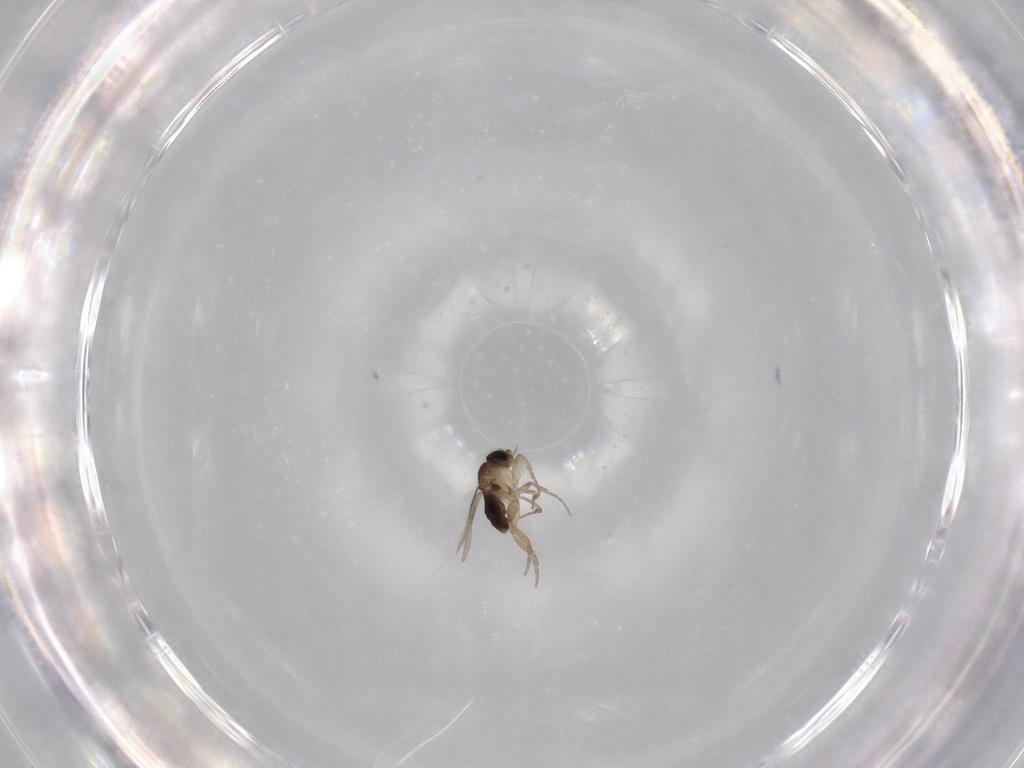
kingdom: Animalia
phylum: Arthropoda
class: Insecta
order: Diptera
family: Phoridae
